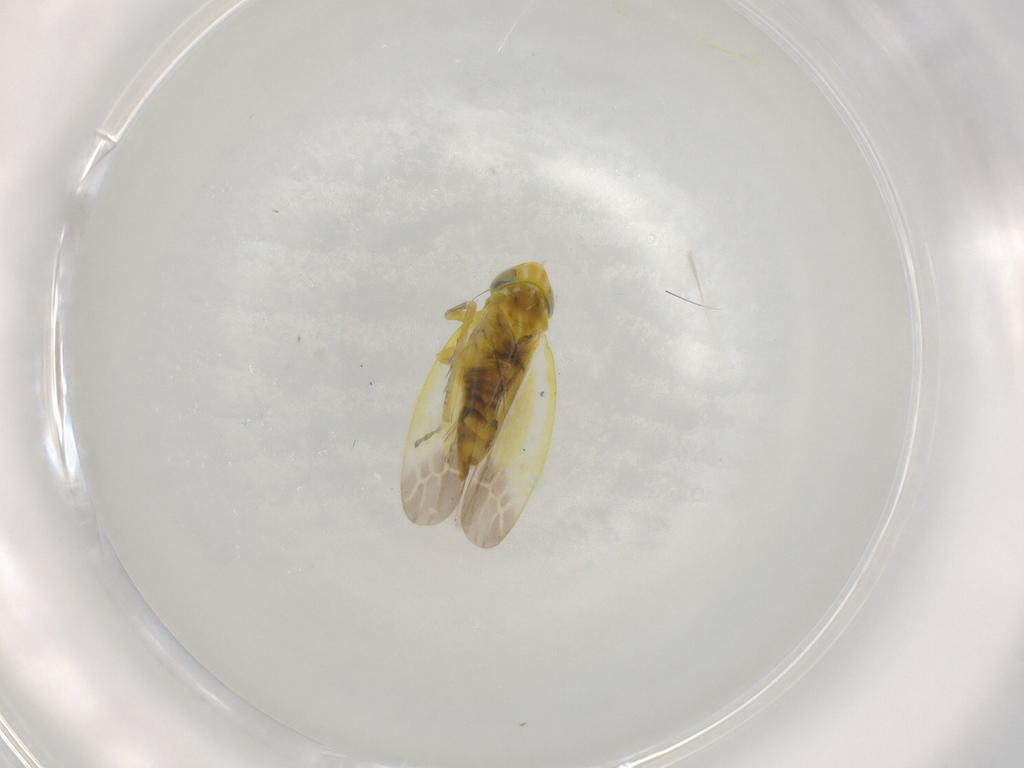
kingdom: Animalia
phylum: Arthropoda
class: Insecta
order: Hemiptera
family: Cicadellidae
